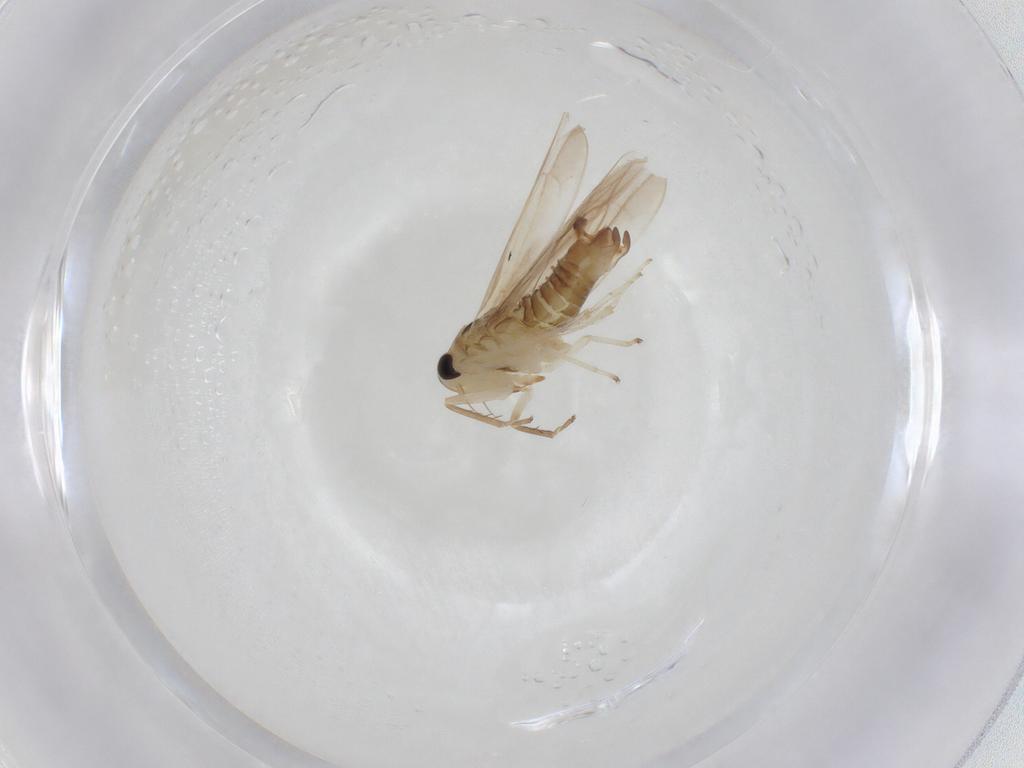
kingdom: Animalia
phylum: Arthropoda
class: Insecta
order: Hemiptera
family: Cicadellidae
